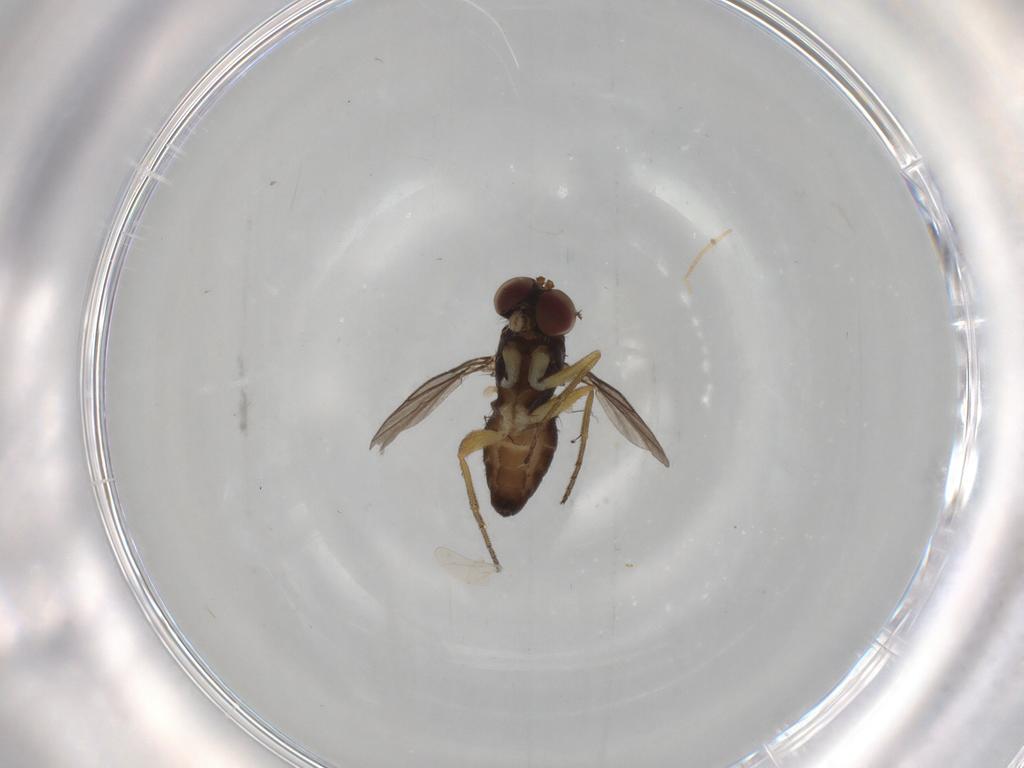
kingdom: Animalia
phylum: Arthropoda
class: Insecta
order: Diptera
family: Dolichopodidae
